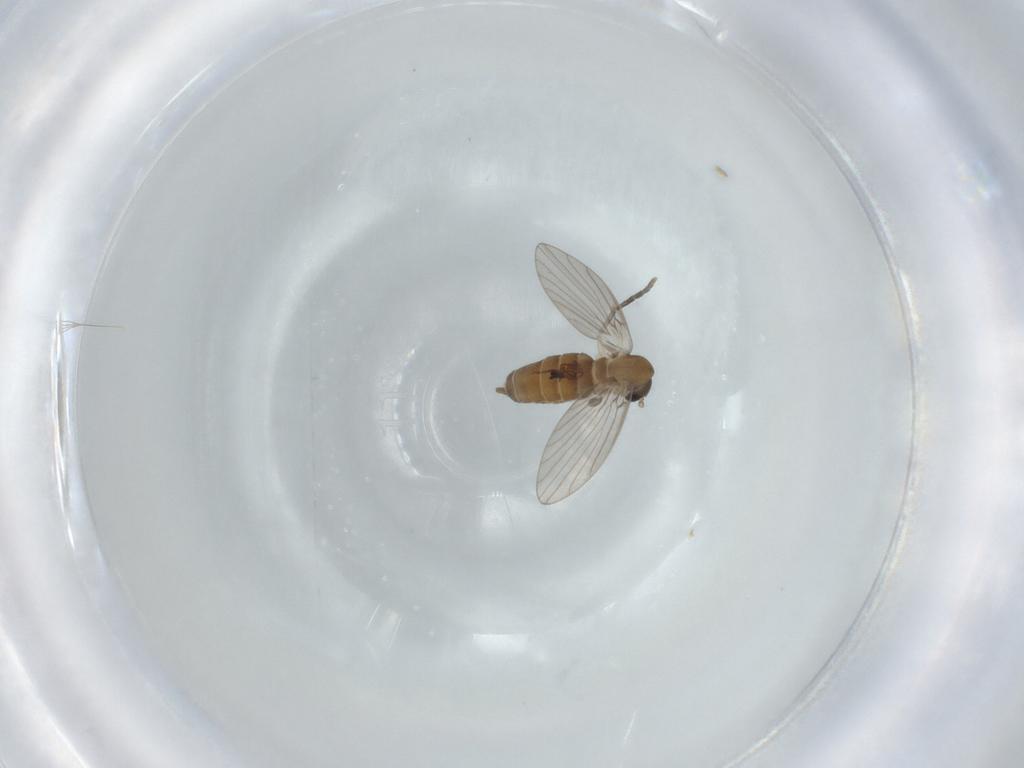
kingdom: Animalia
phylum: Arthropoda
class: Insecta
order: Diptera
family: Psychodidae
